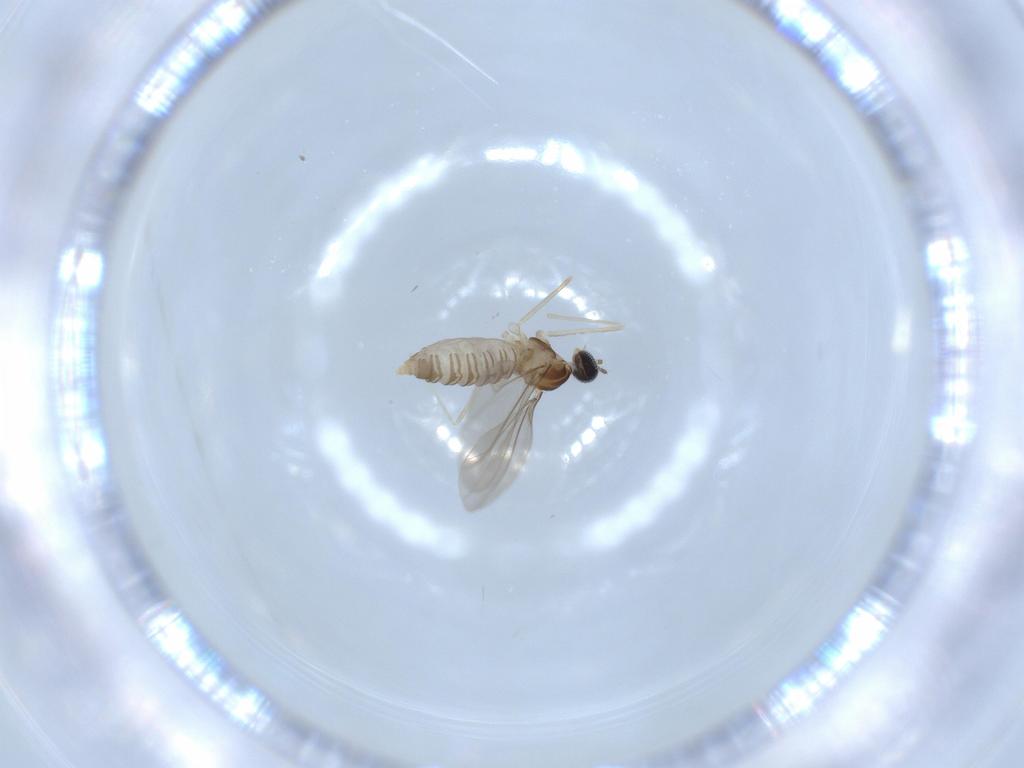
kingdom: Animalia
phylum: Arthropoda
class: Insecta
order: Diptera
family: Cecidomyiidae
